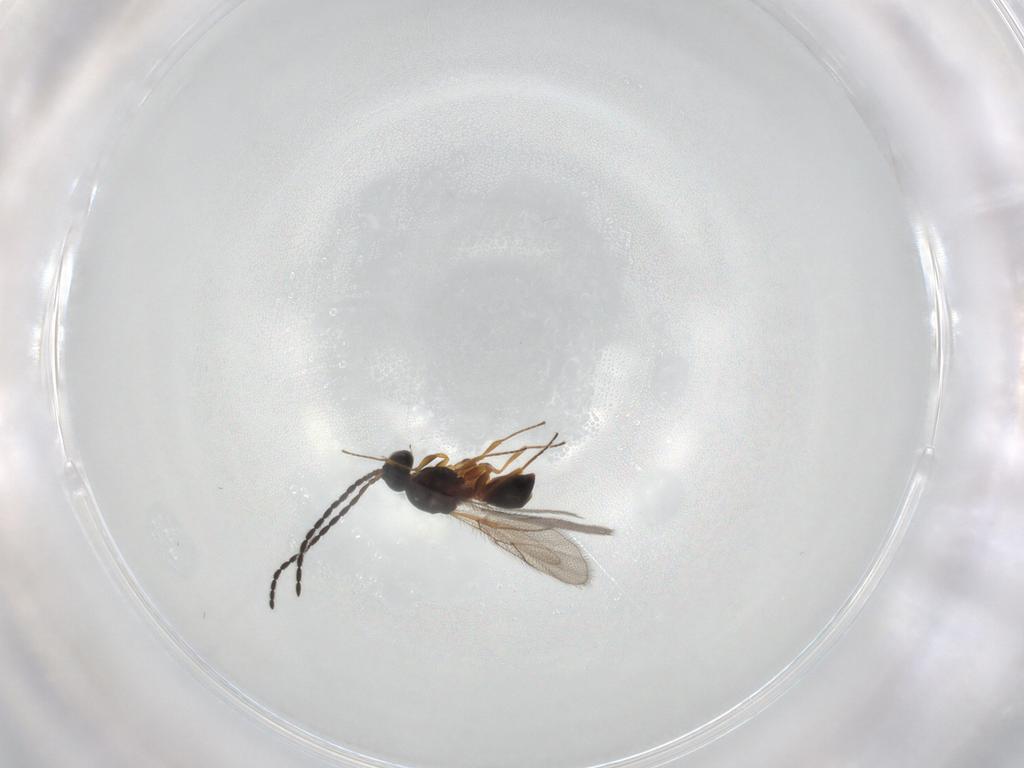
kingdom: Animalia
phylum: Arthropoda
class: Insecta
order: Hymenoptera
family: Figitidae
